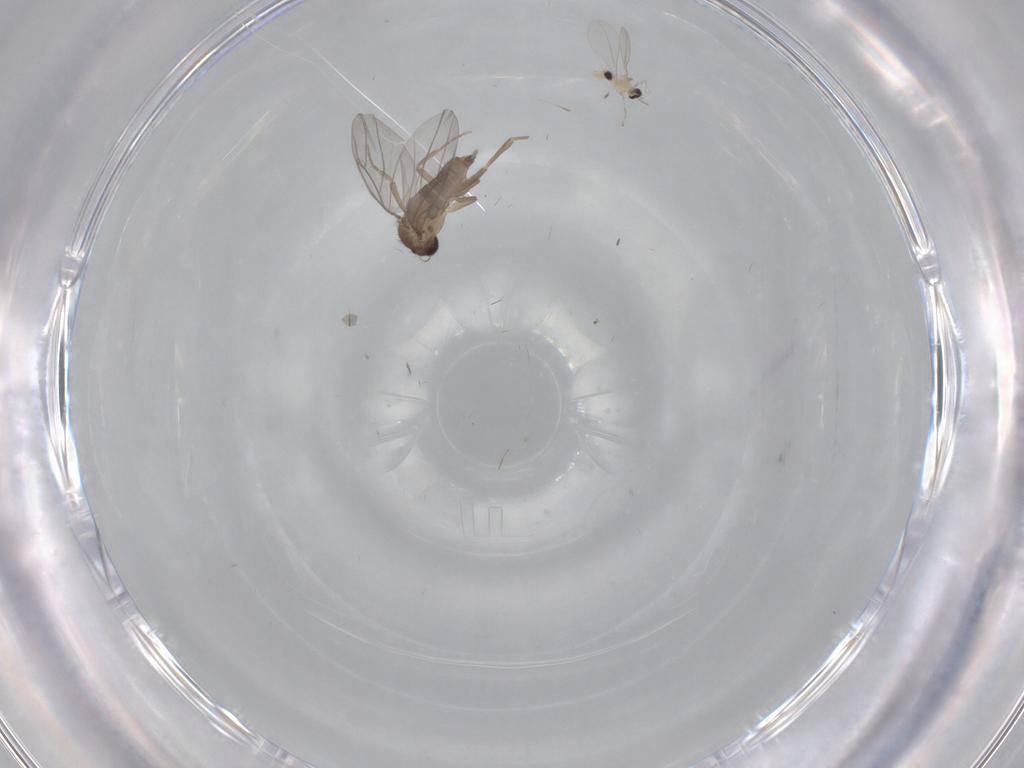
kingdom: Animalia
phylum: Arthropoda
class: Insecta
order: Diptera
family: Cecidomyiidae
